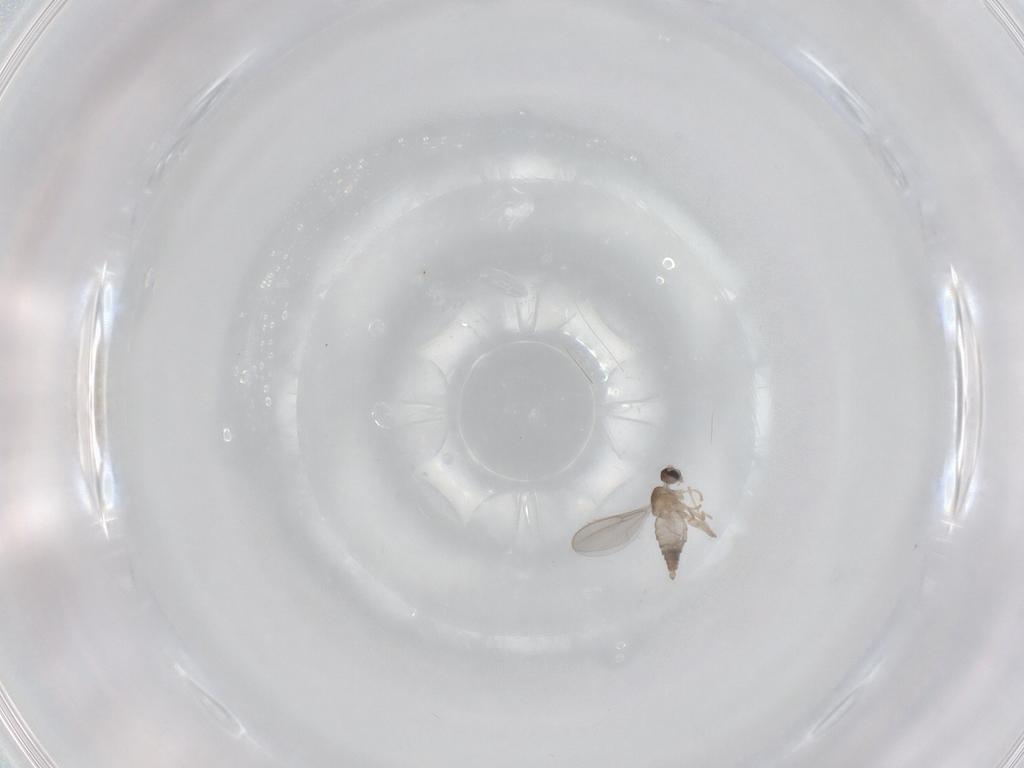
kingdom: Animalia
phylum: Arthropoda
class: Insecta
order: Diptera
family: Cecidomyiidae
